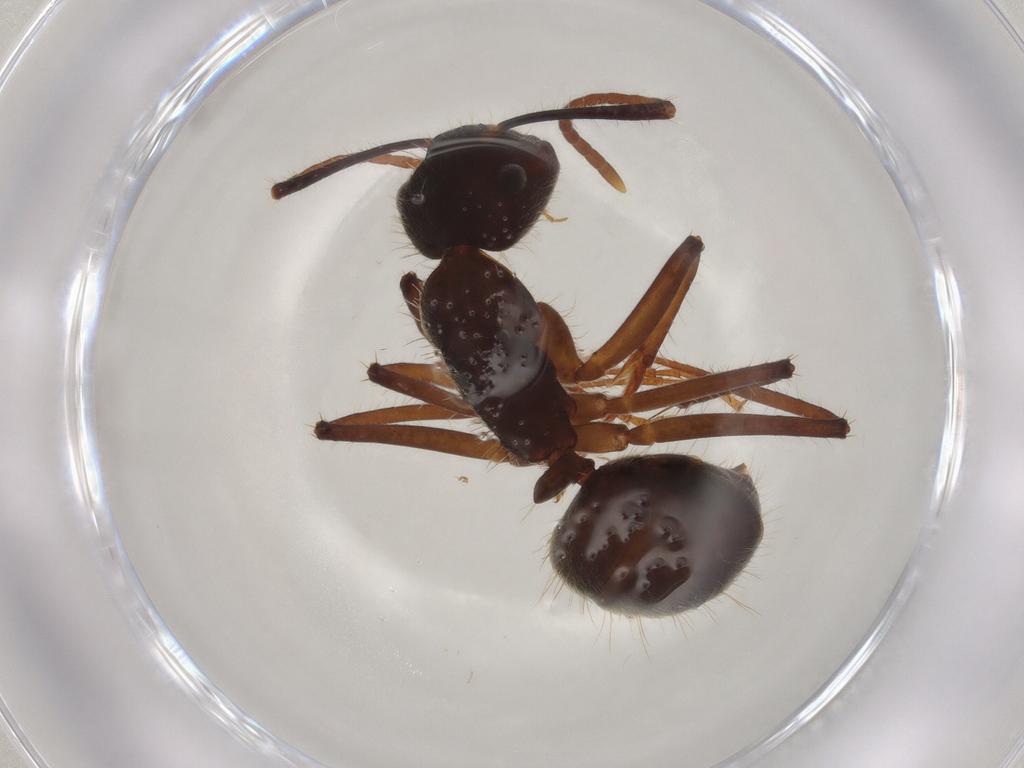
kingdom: Animalia
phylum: Arthropoda
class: Insecta
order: Hymenoptera
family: Formicidae
